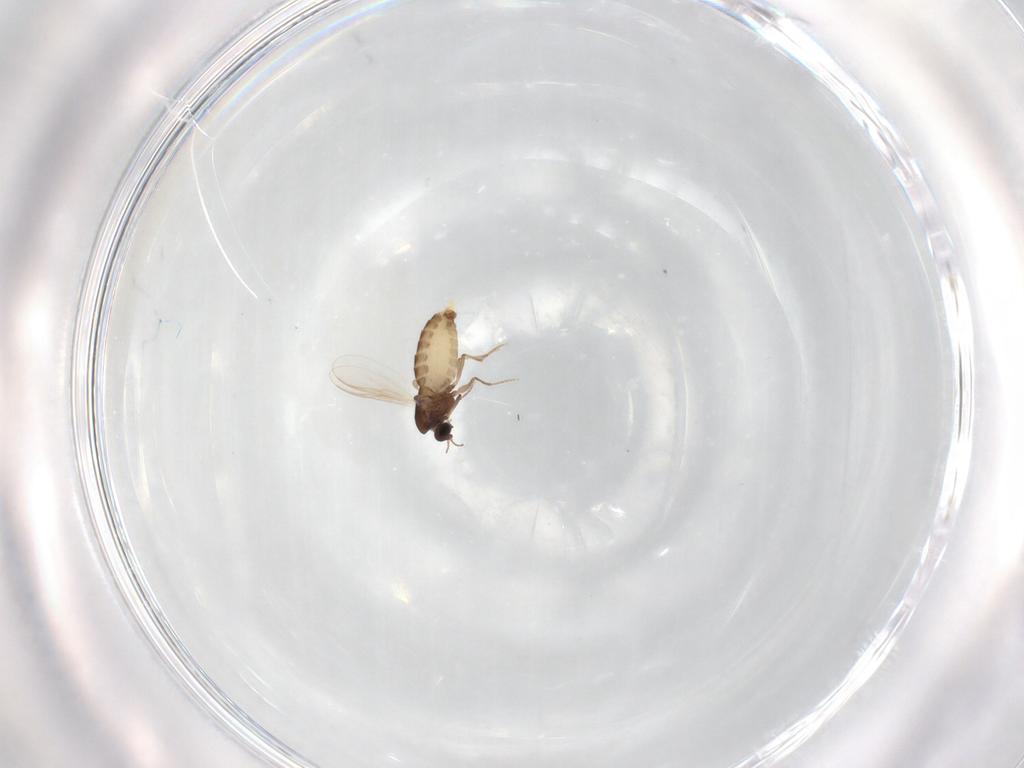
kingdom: Animalia
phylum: Arthropoda
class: Insecta
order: Diptera
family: Chironomidae
